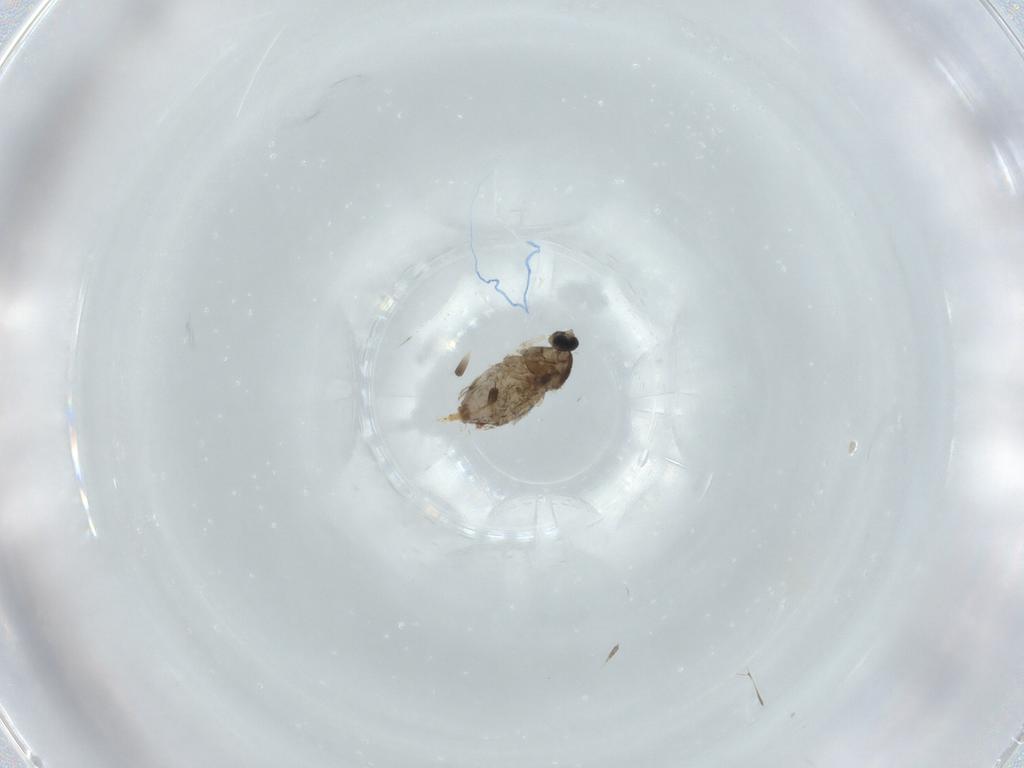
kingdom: Animalia
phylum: Arthropoda
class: Insecta
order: Diptera
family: Cecidomyiidae
